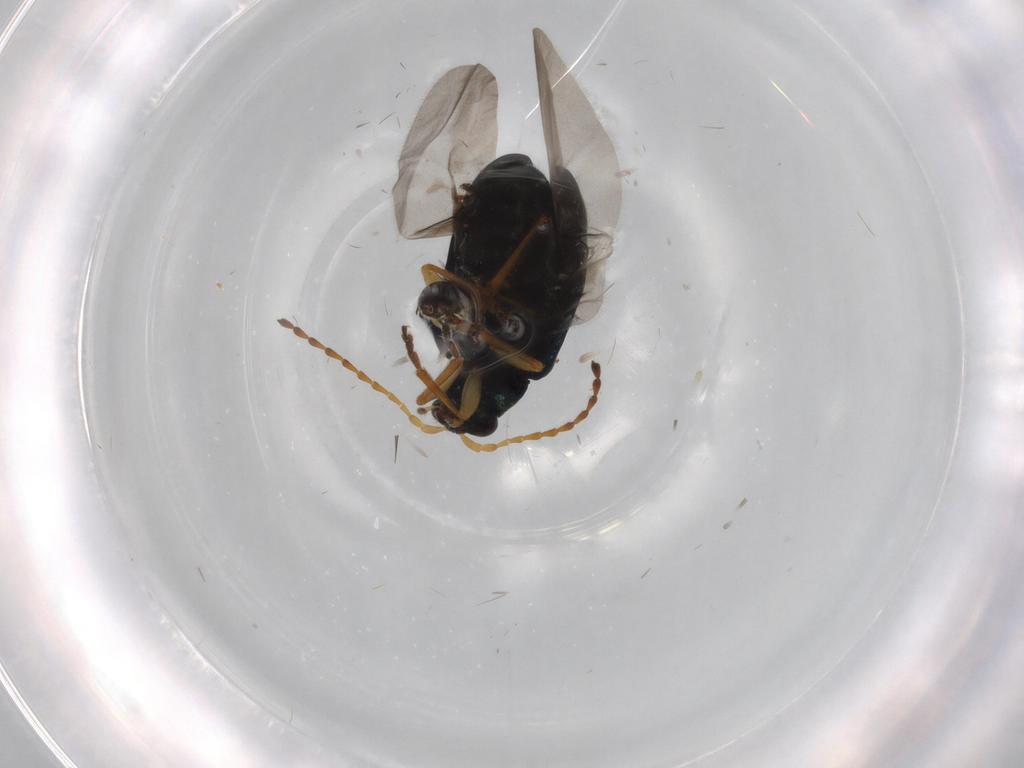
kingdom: Animalia
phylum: Arthropoda
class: Insecta
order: Coleoptera
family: Chrysomelidae
